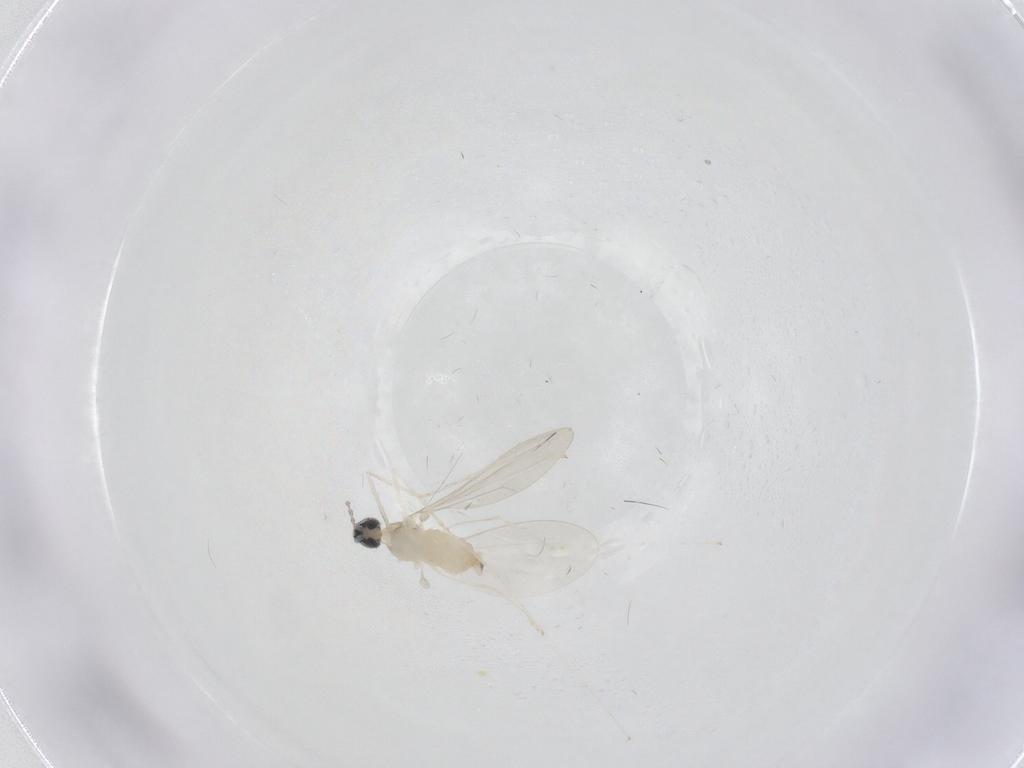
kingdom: Animalia
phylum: Arthropoda
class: Insecta
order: Diptera
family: Cecidomyiidae
